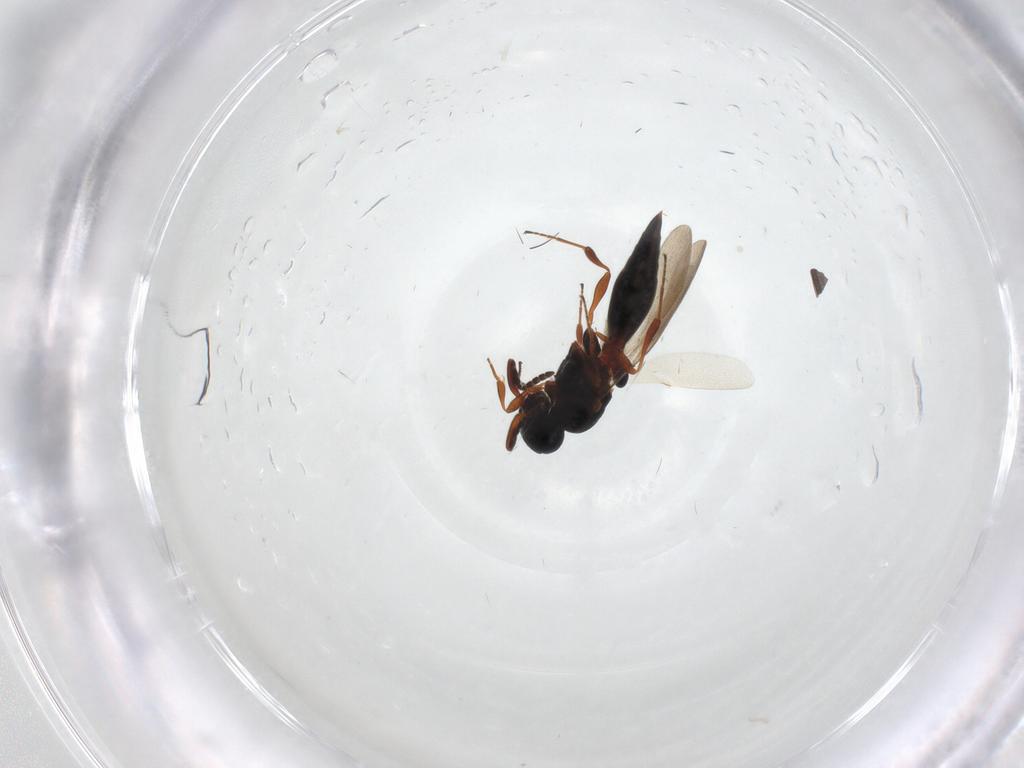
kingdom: Animalia
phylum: Arthropoda
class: Insecta
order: Hymenoptera
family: Platygastridae
